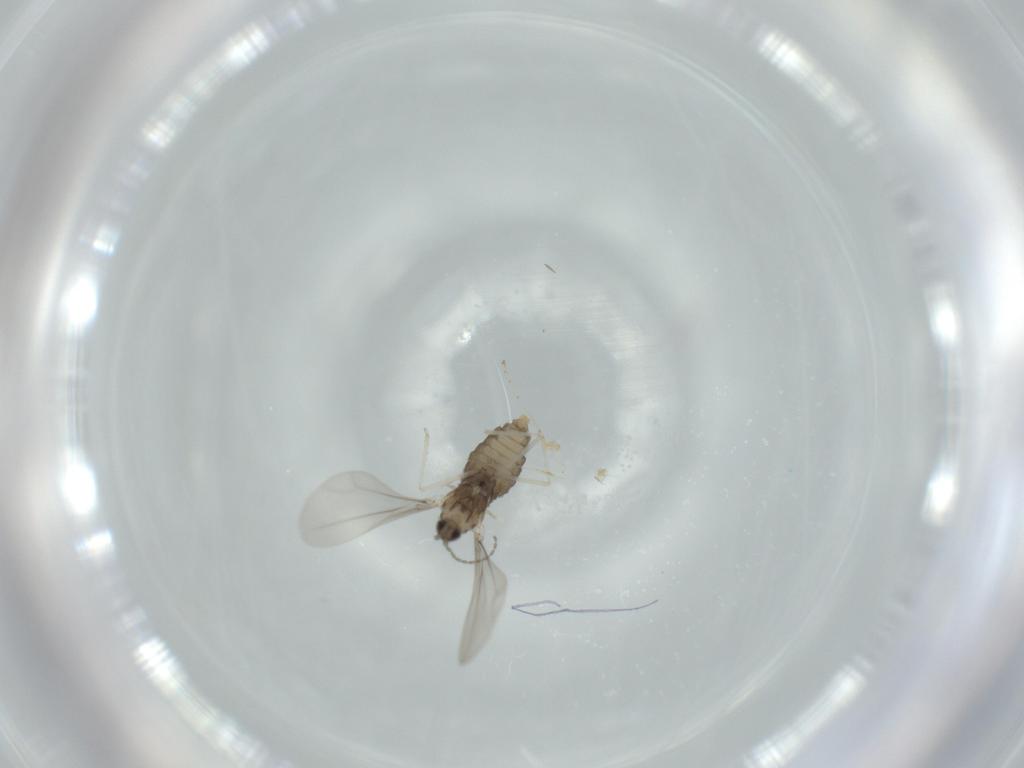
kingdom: Animalia
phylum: Arthropoda
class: Insecta
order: Diptera
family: Cecidomyiidae
